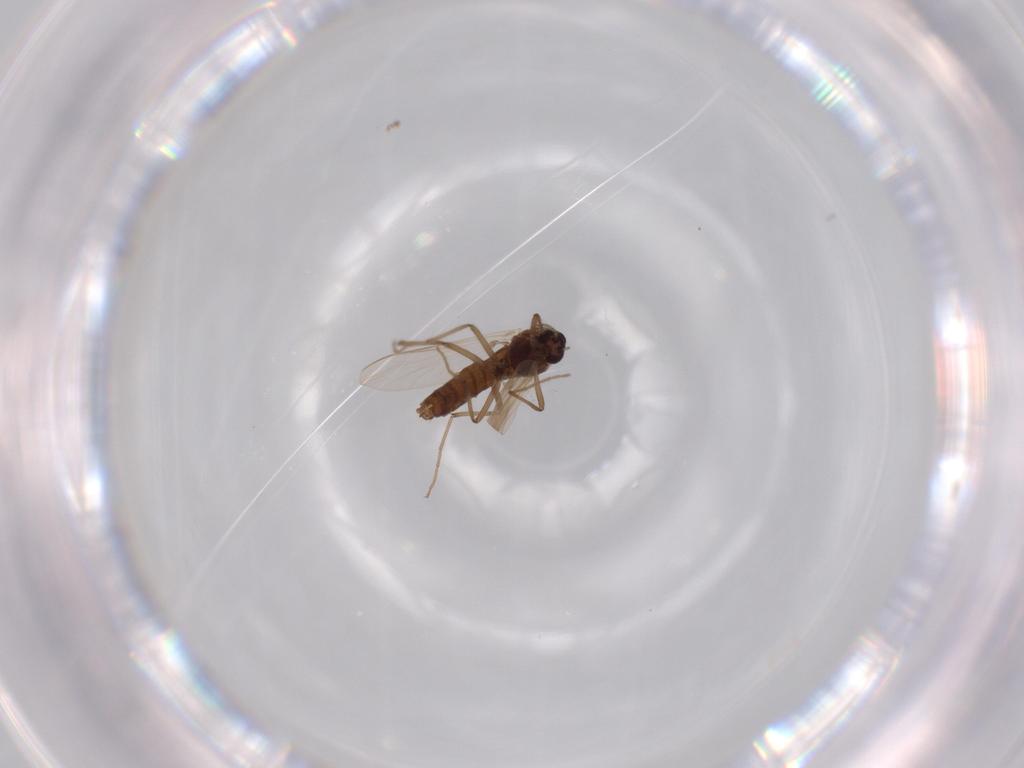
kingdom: Animalia
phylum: Arthropoda
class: Insecta
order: Diptera
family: Chironomidae
